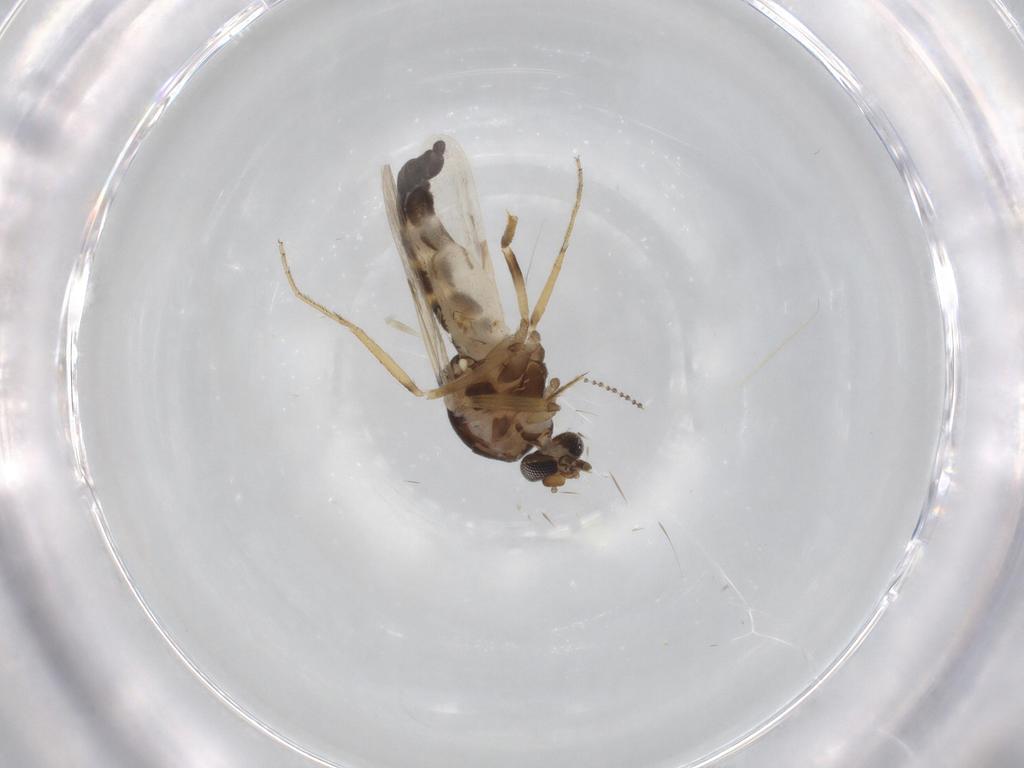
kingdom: Animalia
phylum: Arthropoda
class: Insecta
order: Diptera
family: Ceratopogonidae
